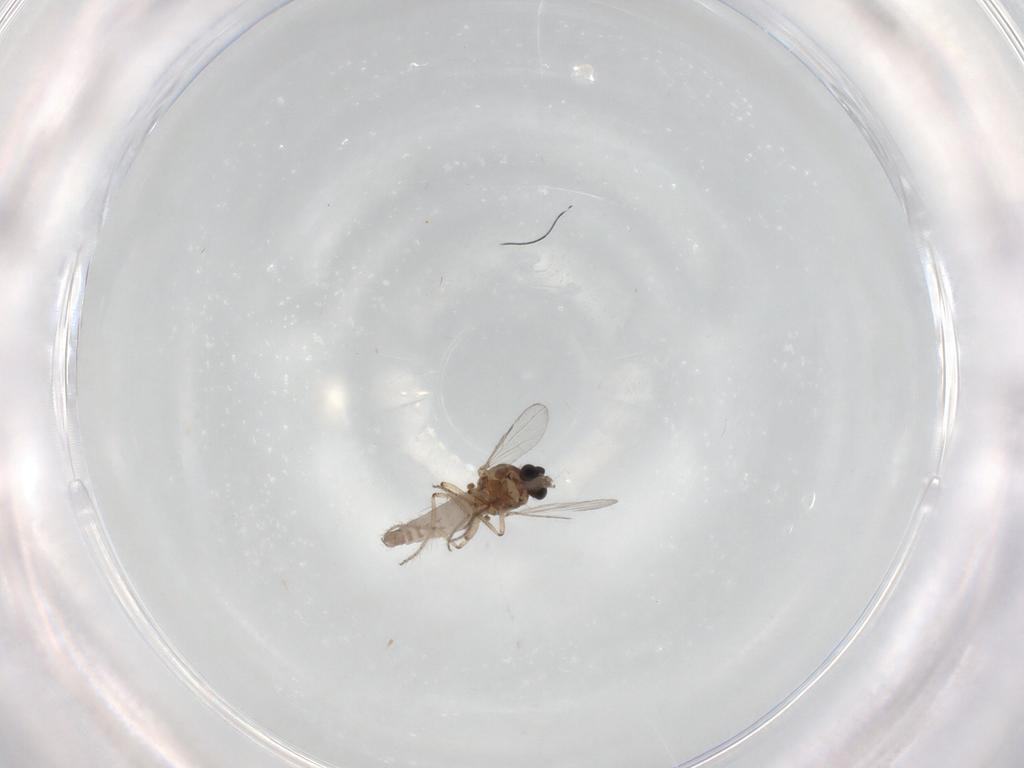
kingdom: Animalia
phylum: Arthropoda
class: Insecta
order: Diptera
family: Ceratopogonidae
